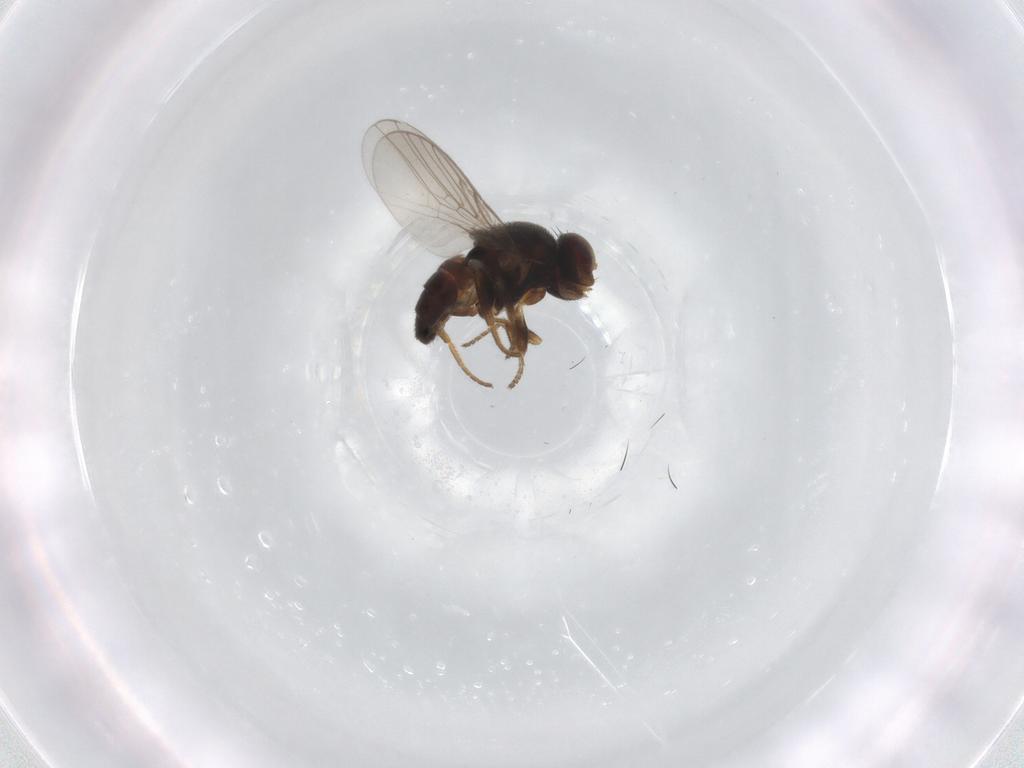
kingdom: Animalia
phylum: Arthropoda
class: Insecta
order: Diptera
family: Chloropidae
